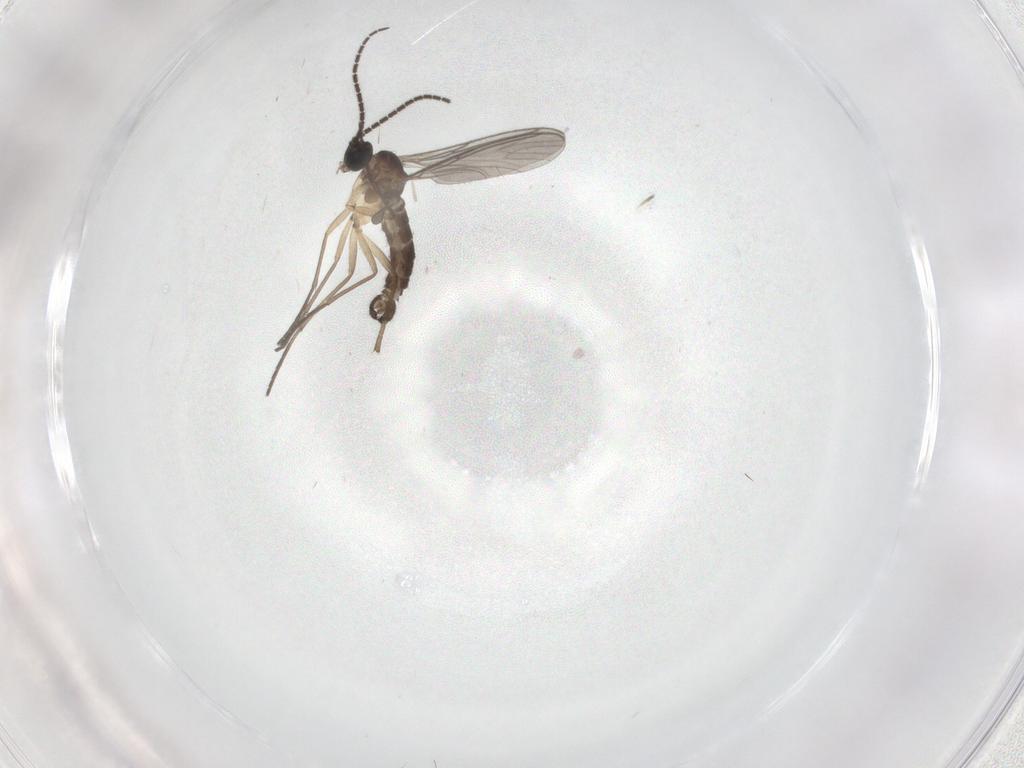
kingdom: Animalia
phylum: Arthropoda
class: Insecta
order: Diptera
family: Sciaridae
